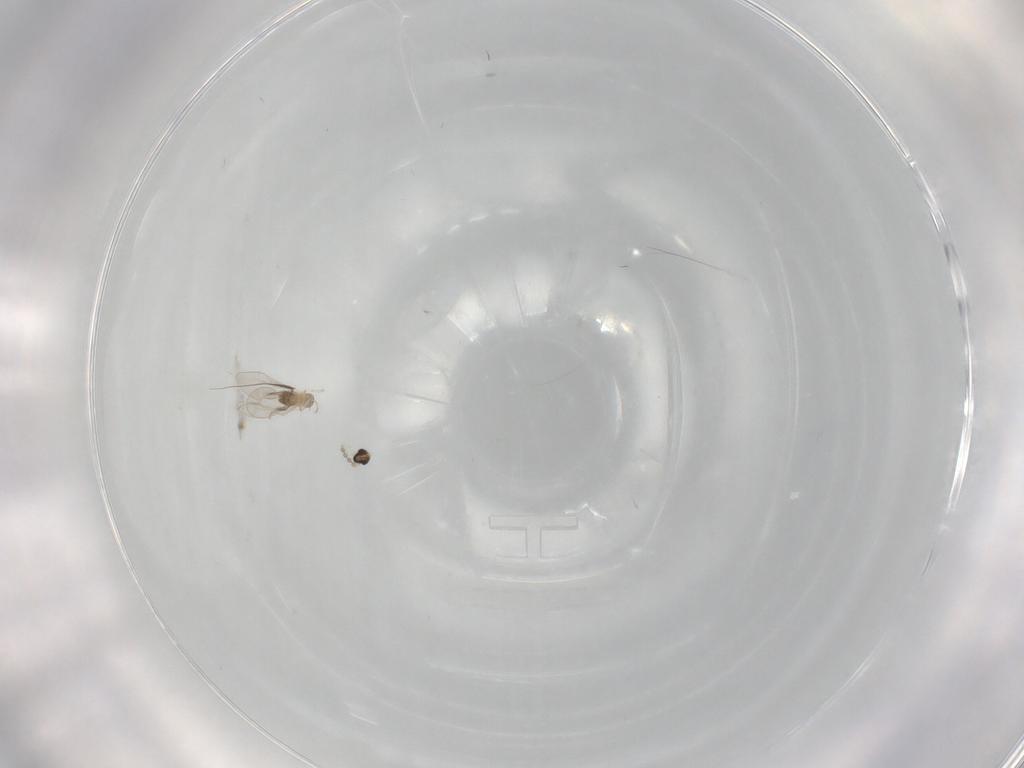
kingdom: Animalia
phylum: Arthropoda
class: Insecta
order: Diptera
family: Cecidomyiidae
